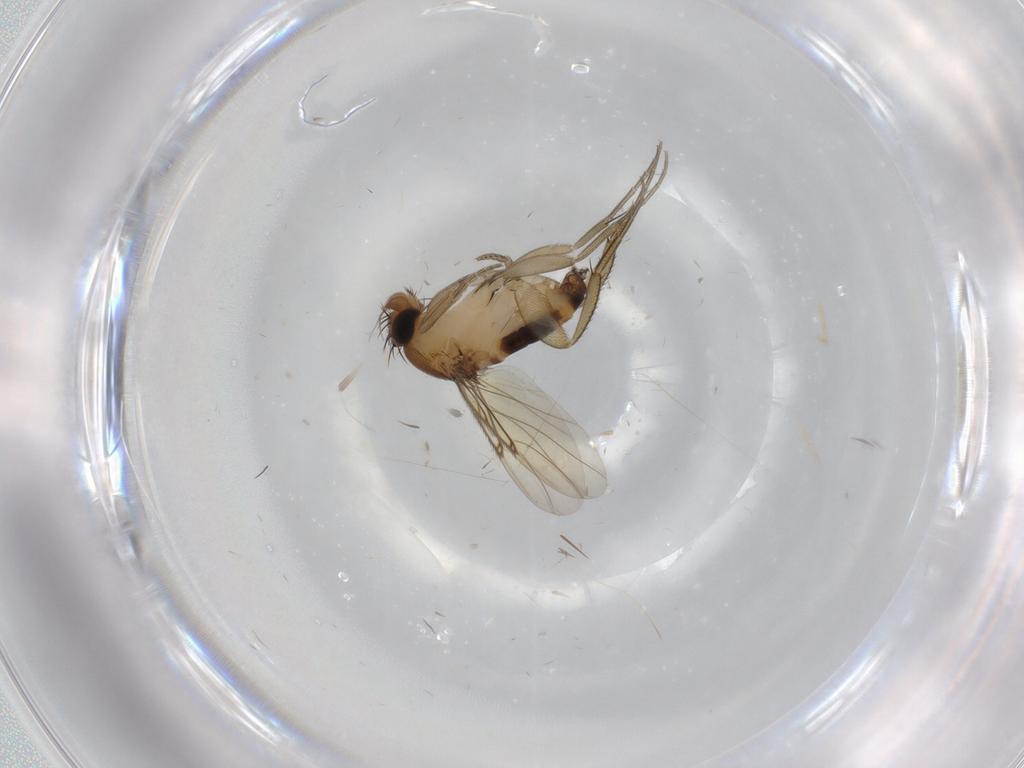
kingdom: Animalia
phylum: Arthropoda
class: Insecta
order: Diptera
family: Phoridae
